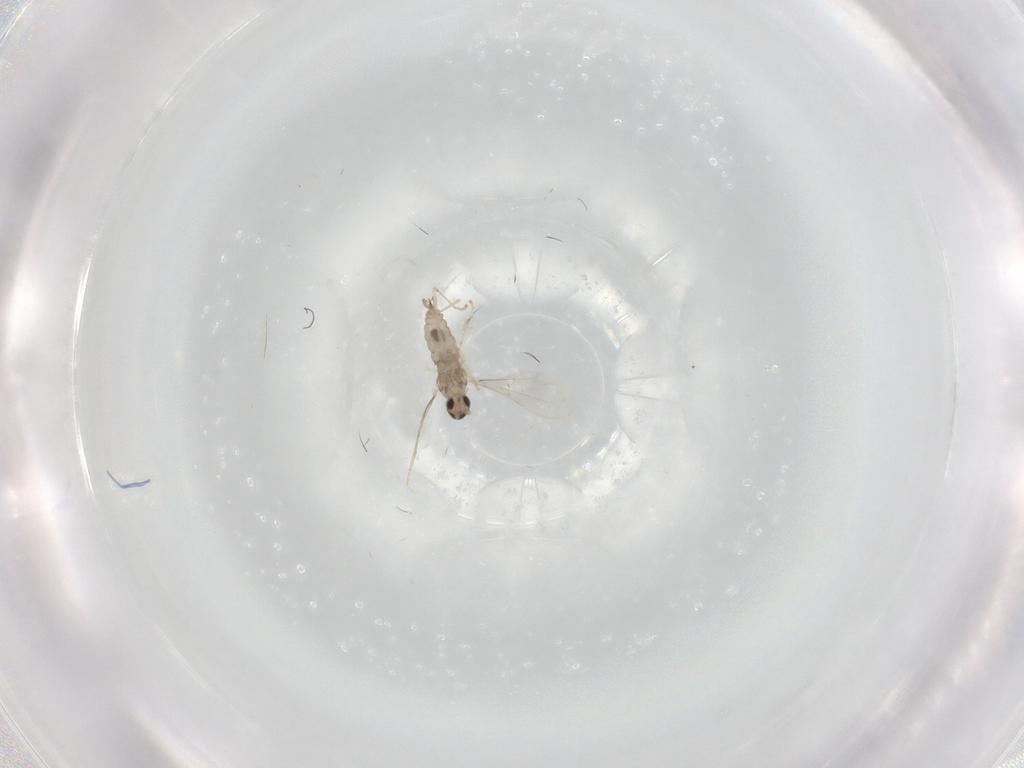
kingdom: Animalia
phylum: Arthropoda
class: Insecta
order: Diptera
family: Cecidomyiidae
